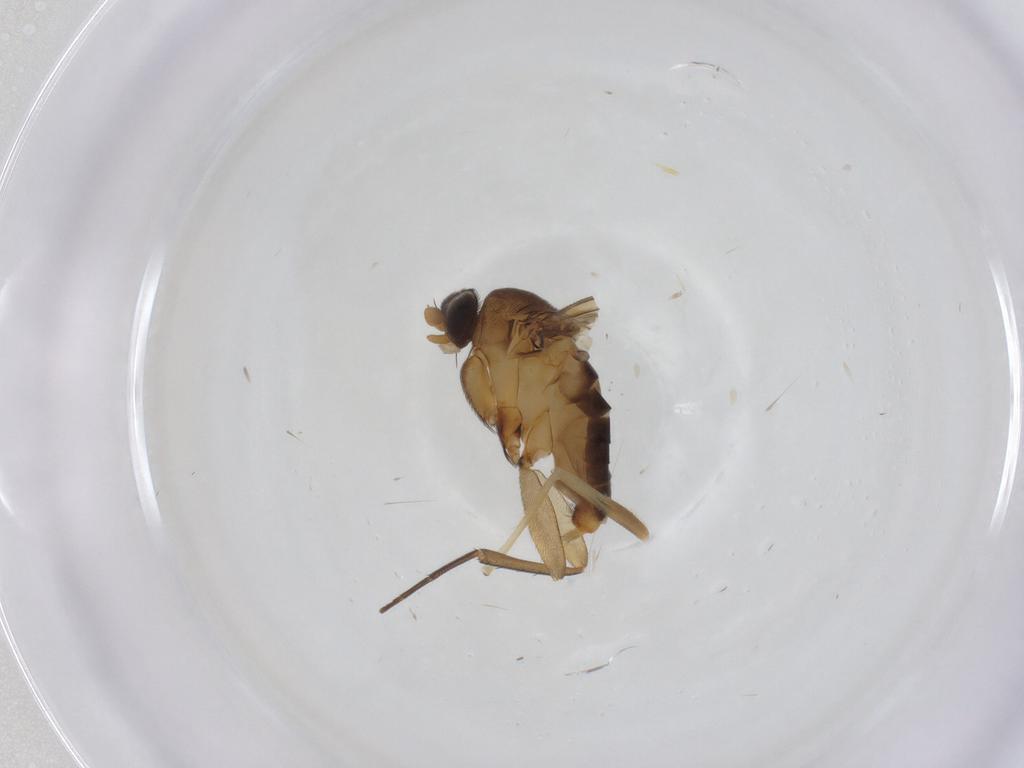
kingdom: Animalia
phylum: Arthropoda
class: Insecta
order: Diptera
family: Phoridae
